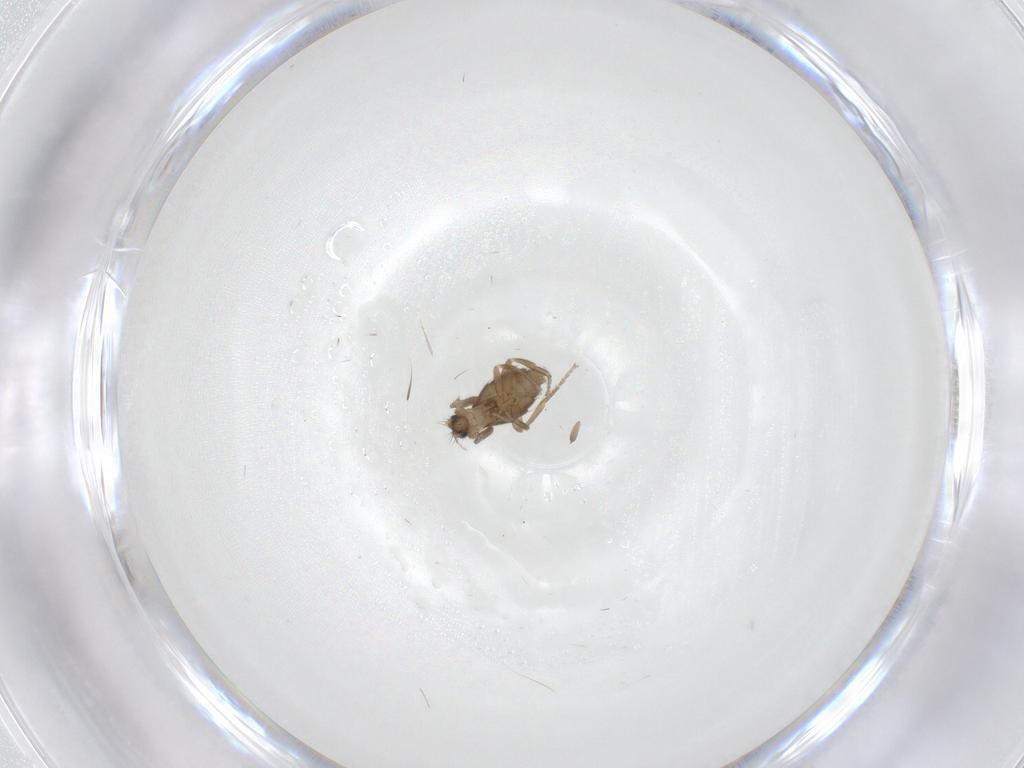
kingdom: Animalia
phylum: Arthropoda
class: Insecta
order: Diptera
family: Phoridae
